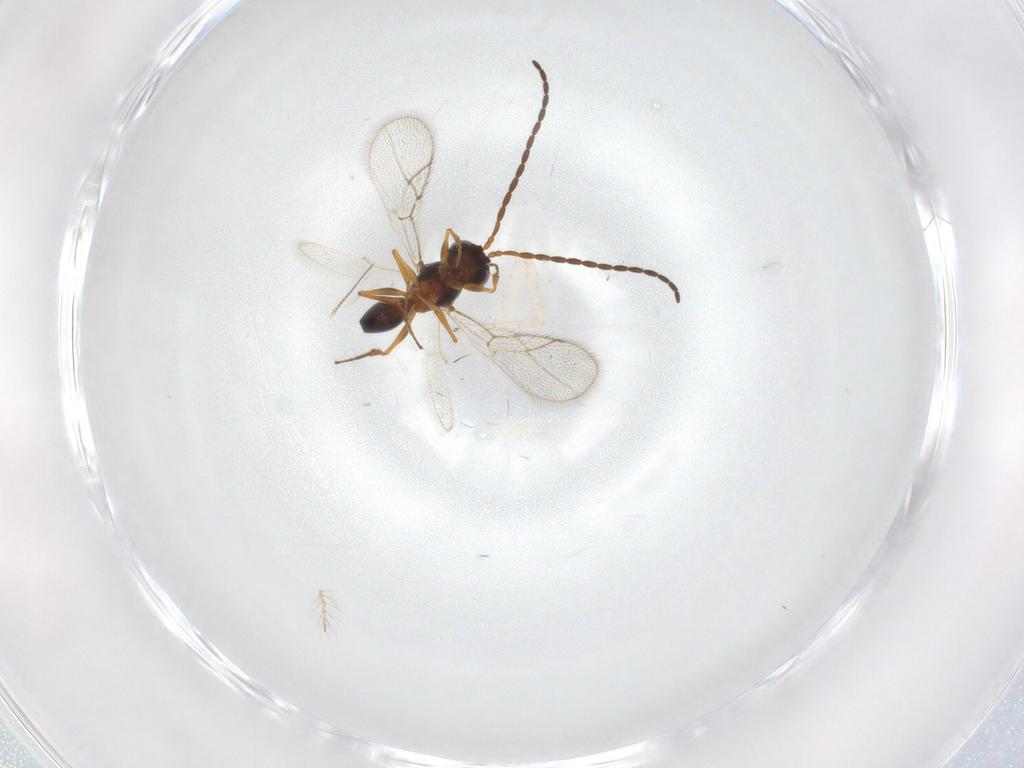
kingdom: Animalia
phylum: Arthropoda
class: Insecta
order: Hymenoptera
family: Figitidae
